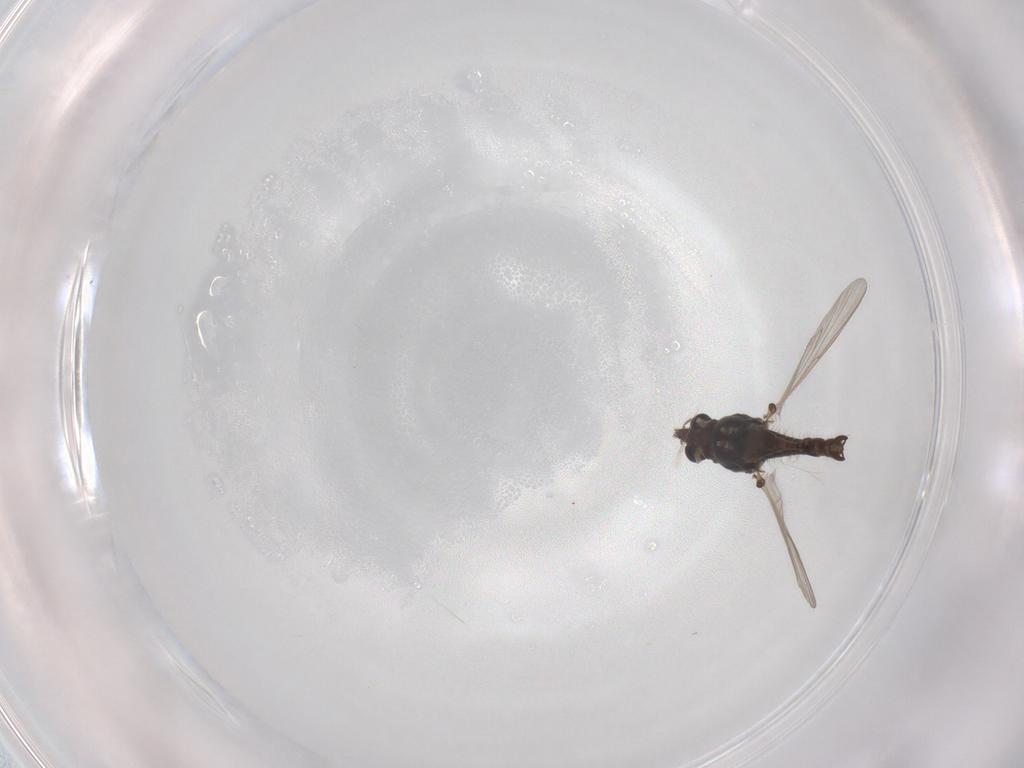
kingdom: Animalia
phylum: Arthropoda
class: Insecta
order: Diptera
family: Chironomidae
